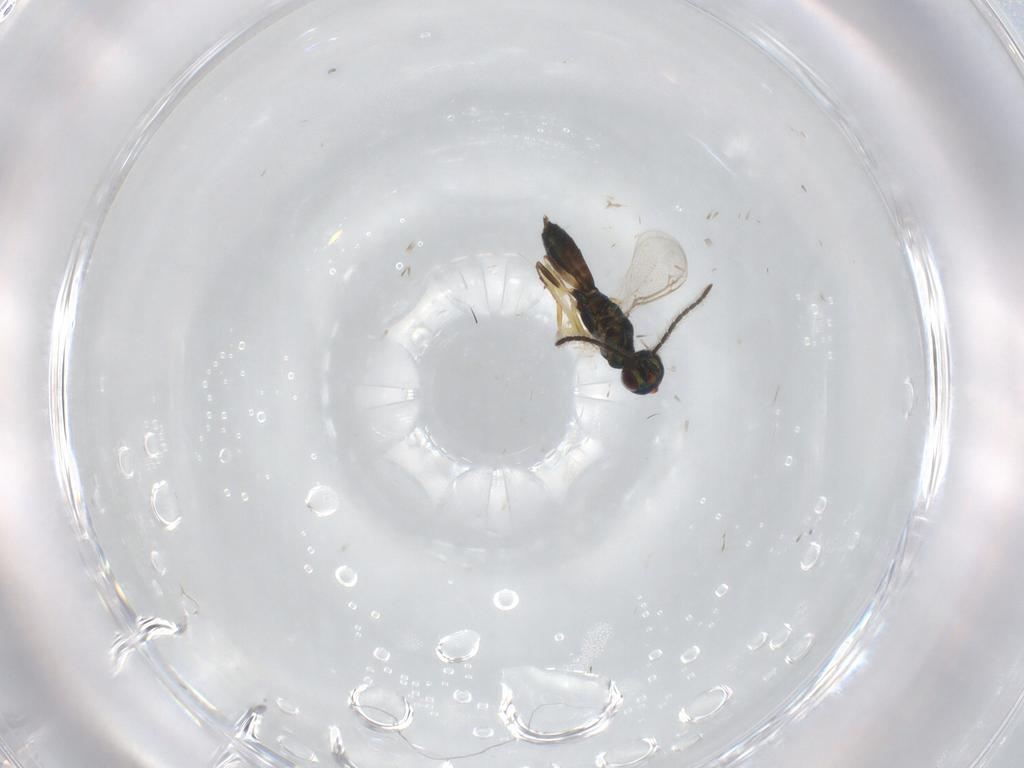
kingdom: Animalia
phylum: Arthropoda
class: Insecta
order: Hymenoptera
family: Formicidae
